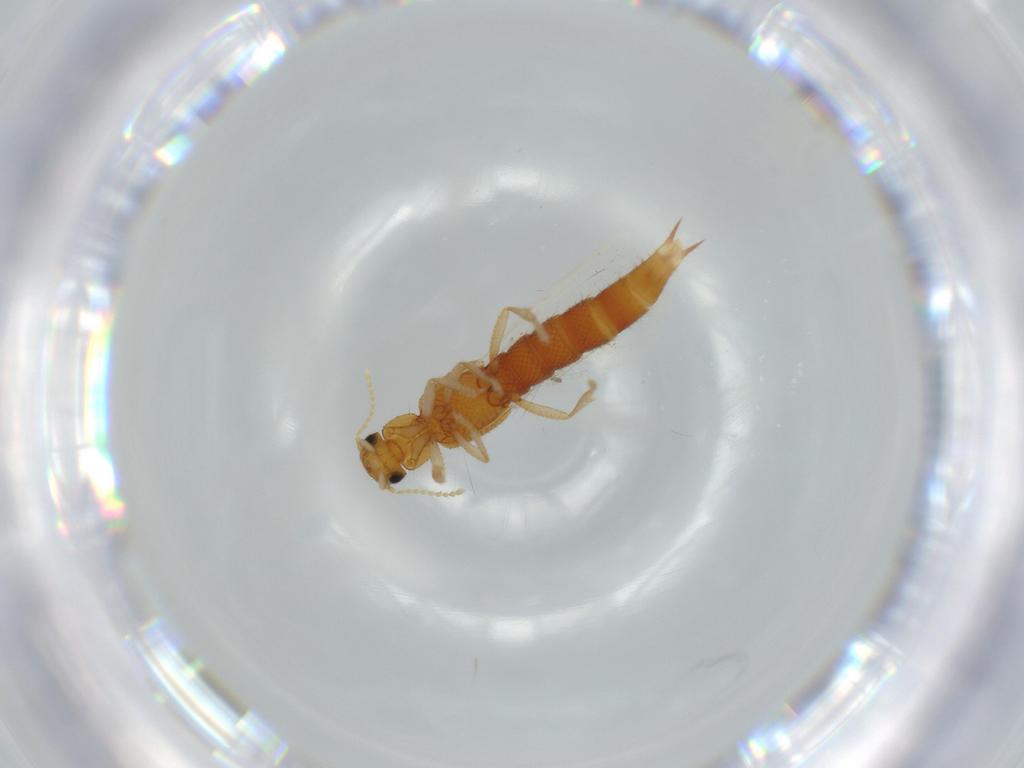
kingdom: Animalia
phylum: Arthropoda
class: Insecta
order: Coleoptera
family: Staphylinidae
